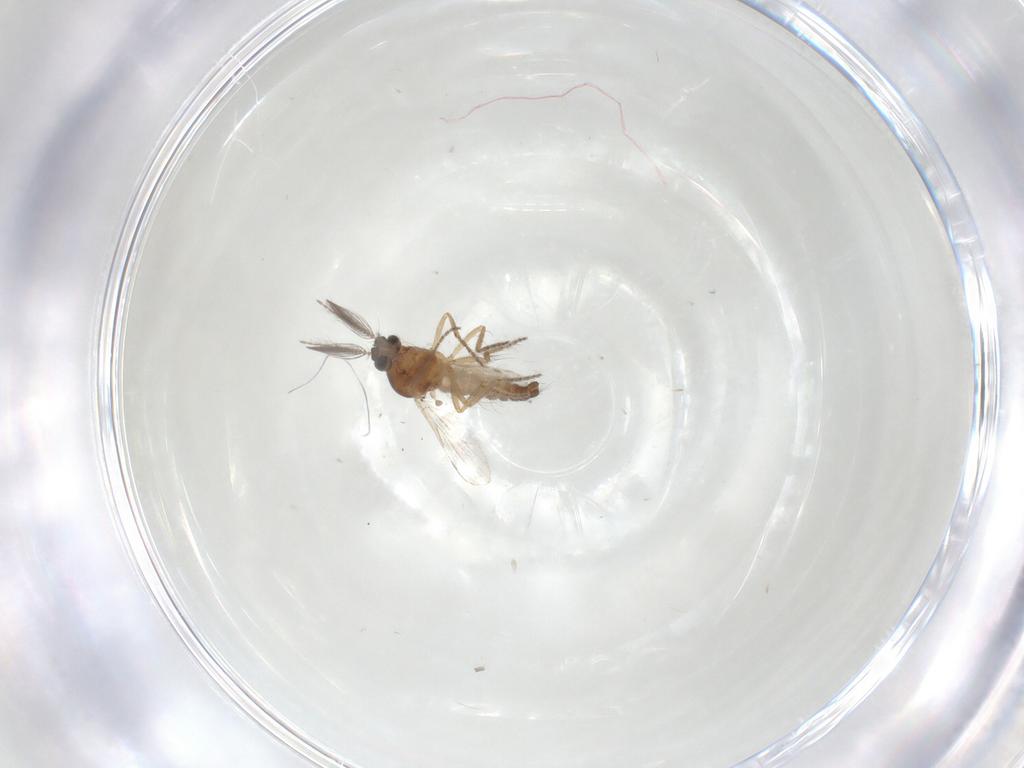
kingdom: Animalia
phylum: Arthropoda
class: Insecta
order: Diptera
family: Ceratopogonidae
